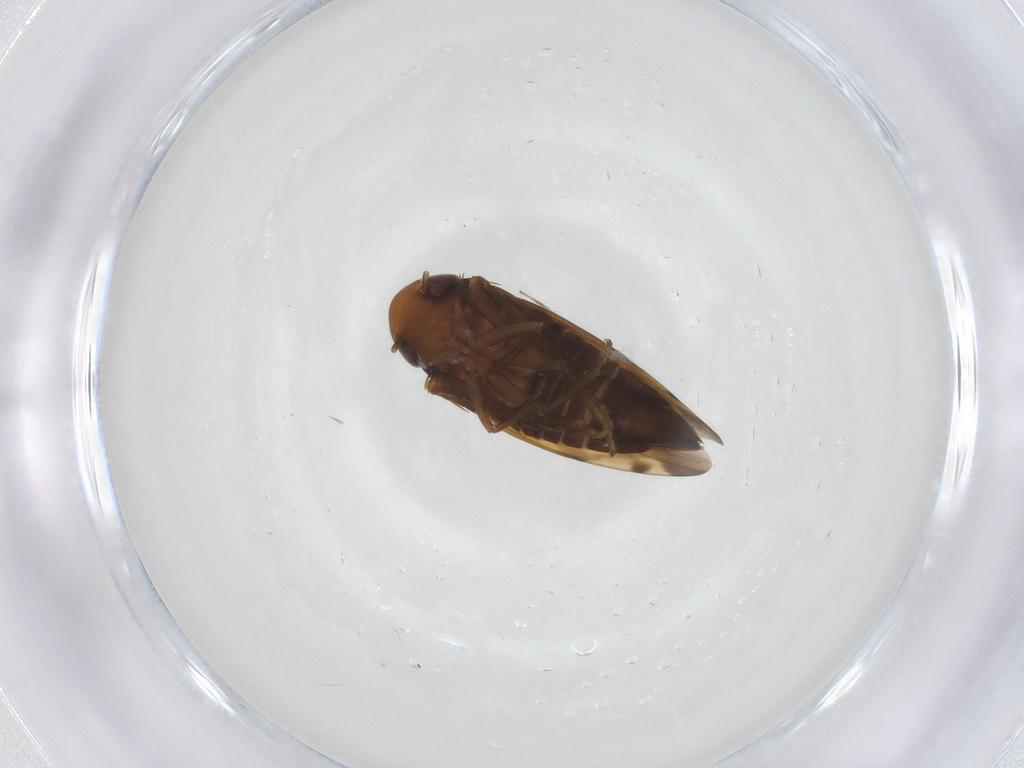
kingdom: Animalia
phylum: Arthropoda
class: Insecta
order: Hemiptera
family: Cicadellidae
